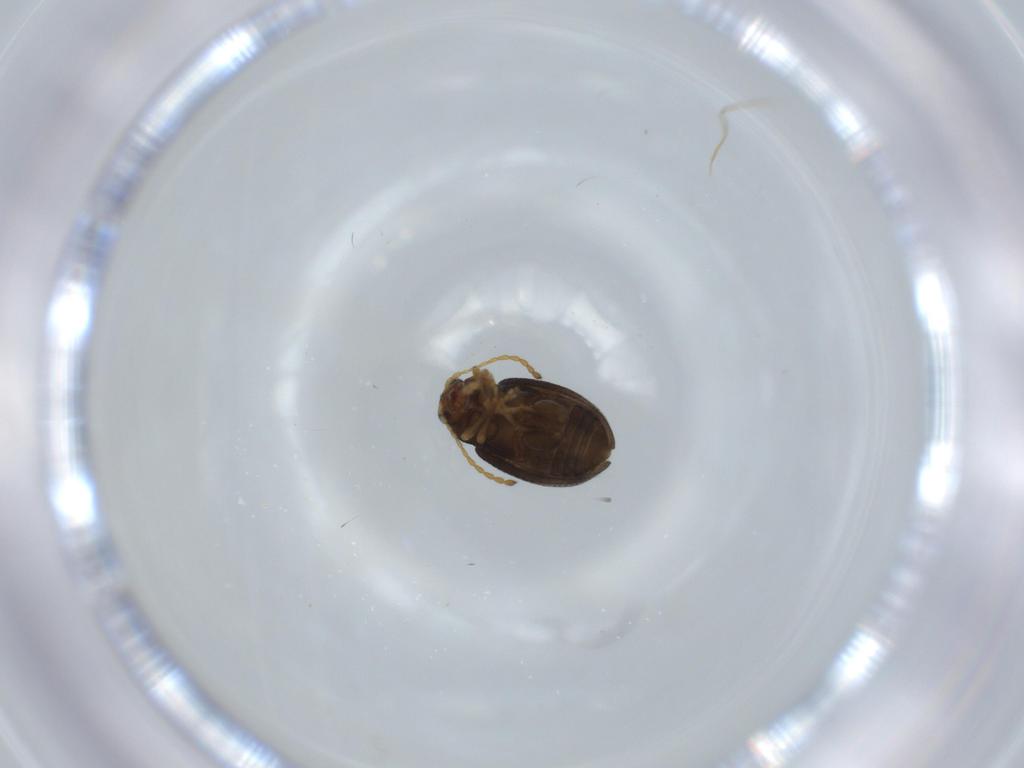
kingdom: Animalia
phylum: Arthropoda
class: Insecta
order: Coleoptera
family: Chrysomelidae
